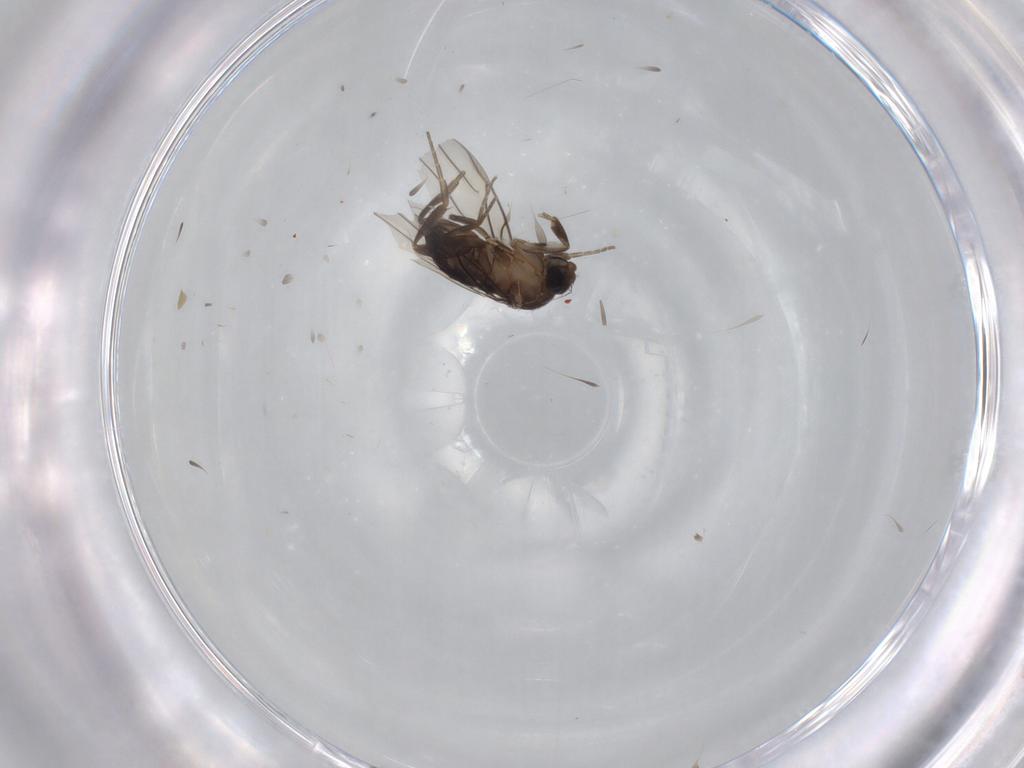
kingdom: Animalia
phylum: Arthropoda
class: Insecta
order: Diptera
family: Phoridae
